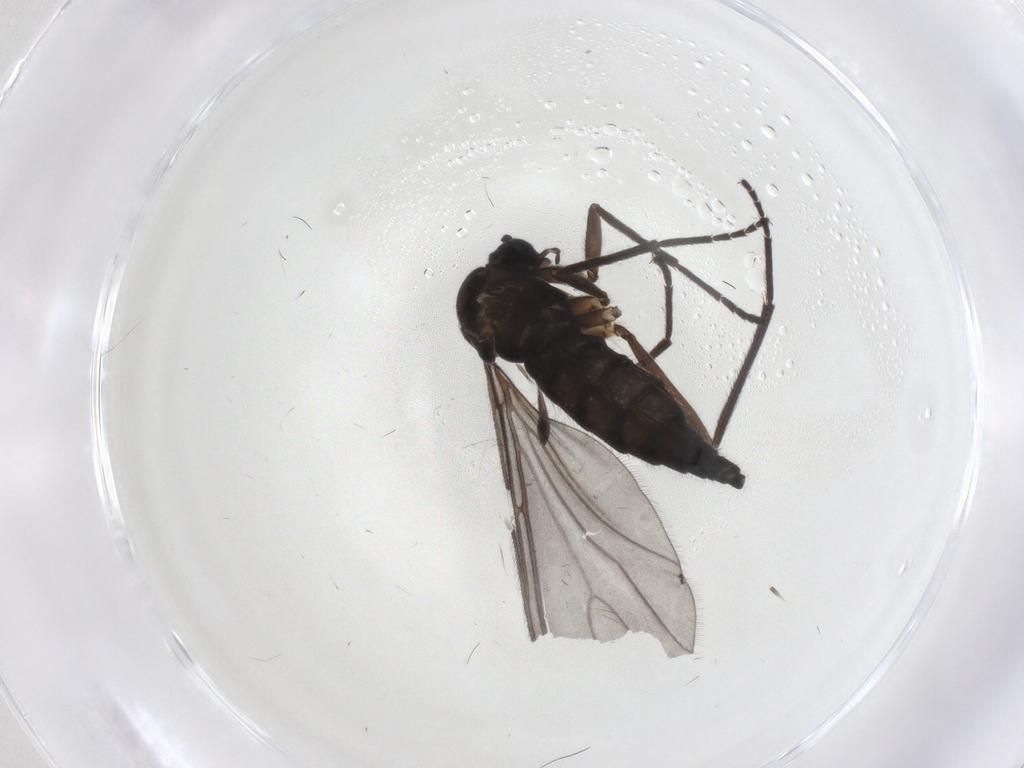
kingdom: Animalia
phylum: Arthropoda
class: Insecta
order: Diptera
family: Sciaridae
